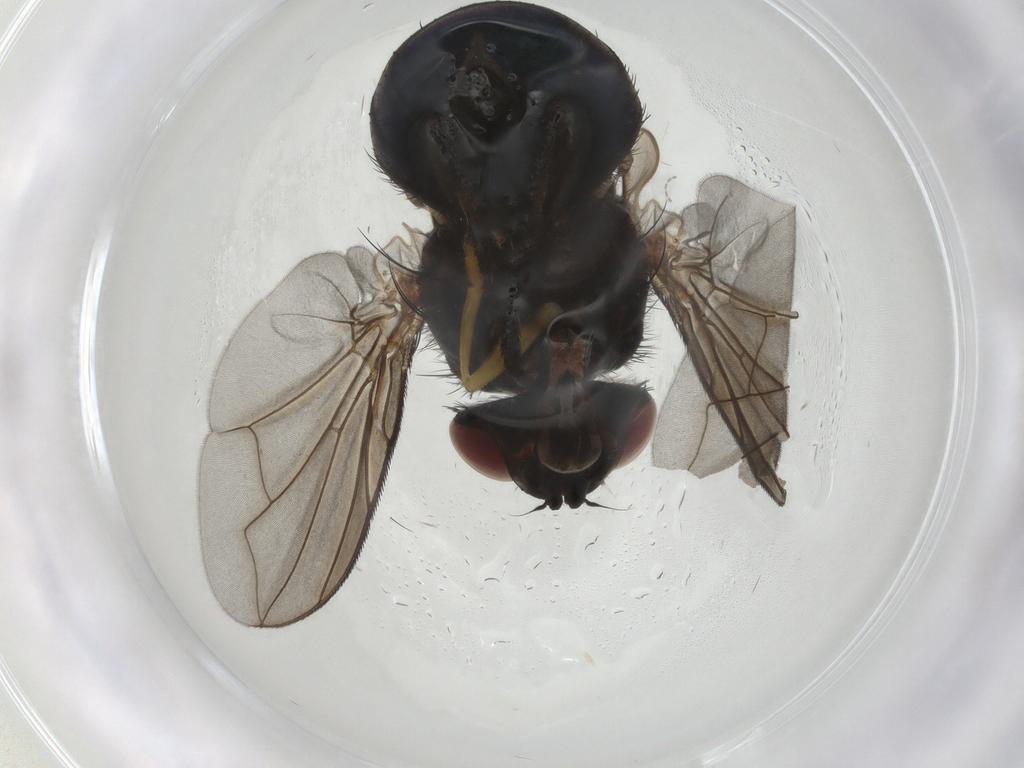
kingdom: Animalia
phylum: Arthropoda
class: Insecta
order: Diptera
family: Tachinidae
